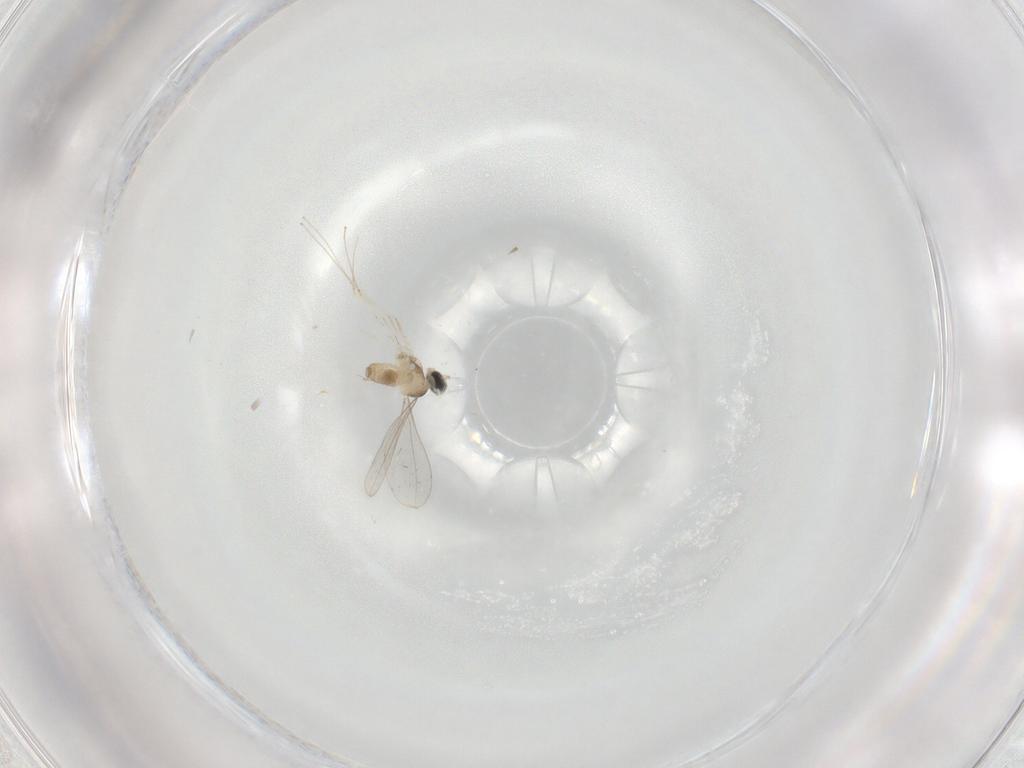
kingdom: Animalia
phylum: Arthropoda
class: Insecta
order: Diptera
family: Cecidomyiidae
